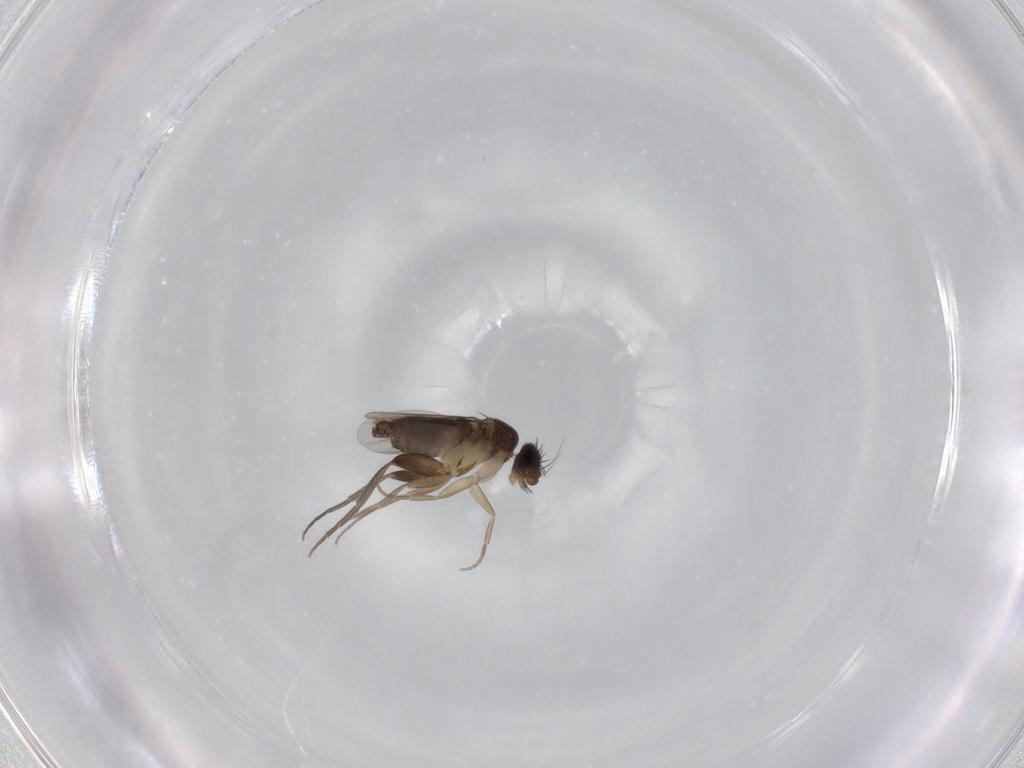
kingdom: Animalia
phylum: Arthropoda
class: Insecta
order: Diptera
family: Phoridae
